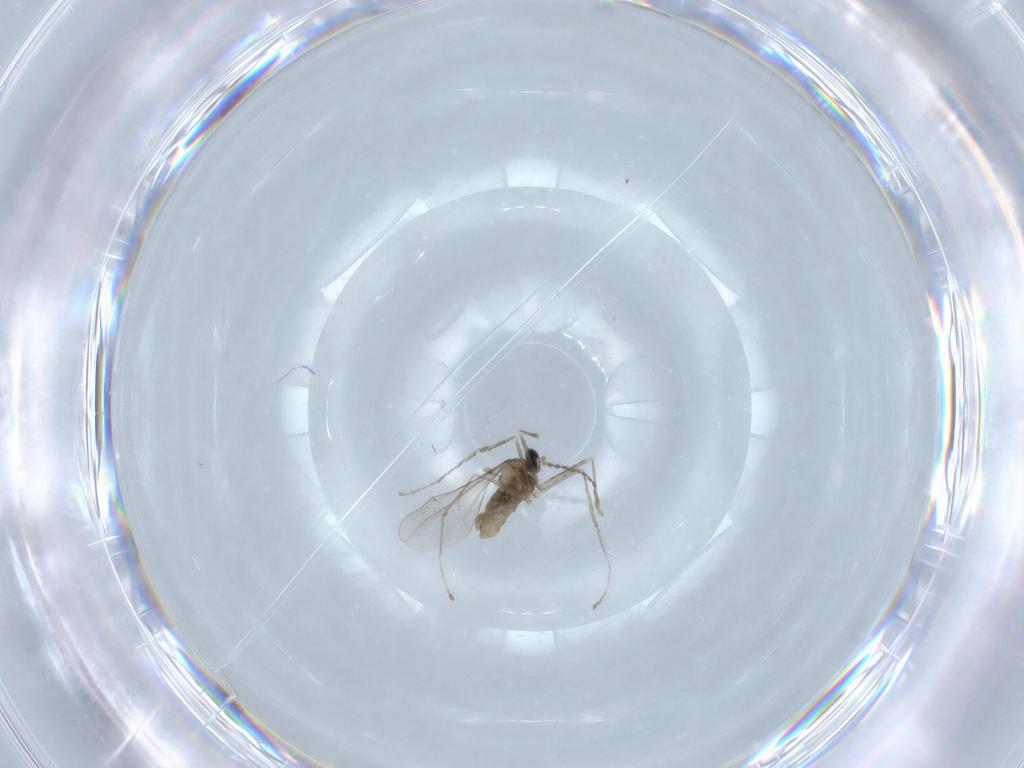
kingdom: Animalia
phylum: Arthropoda
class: Insecta
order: Diptera
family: Cecidomyiidae
